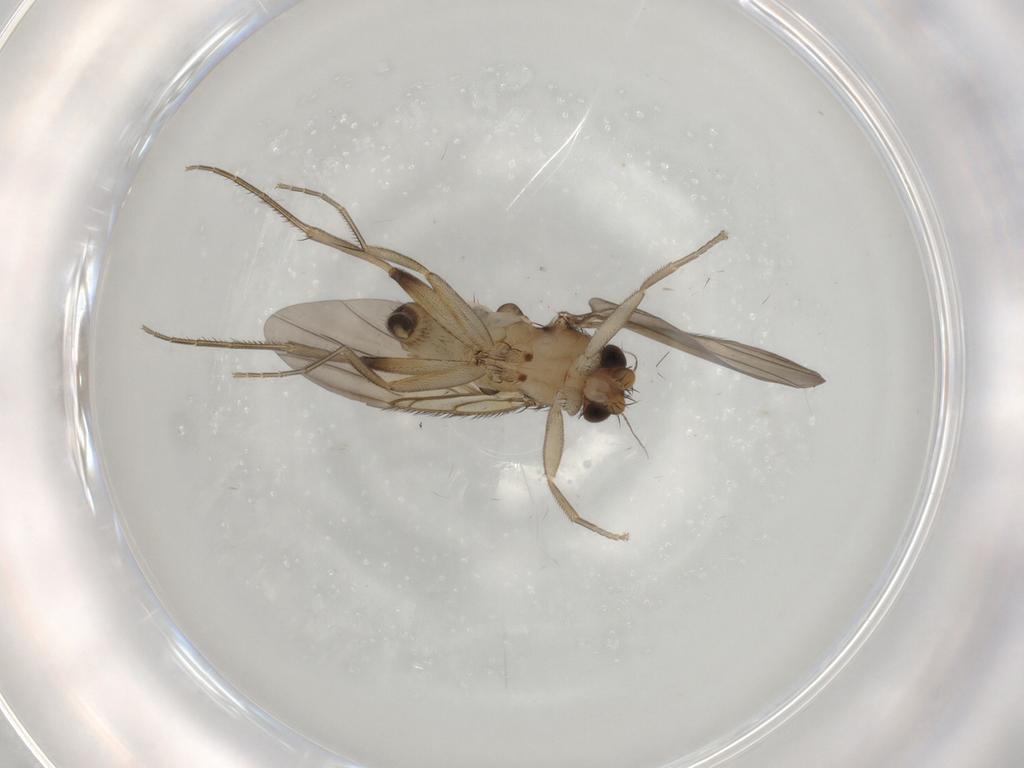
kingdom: Animalia
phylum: Arthropoda
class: Insecta
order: Diptera
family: Phoridae
